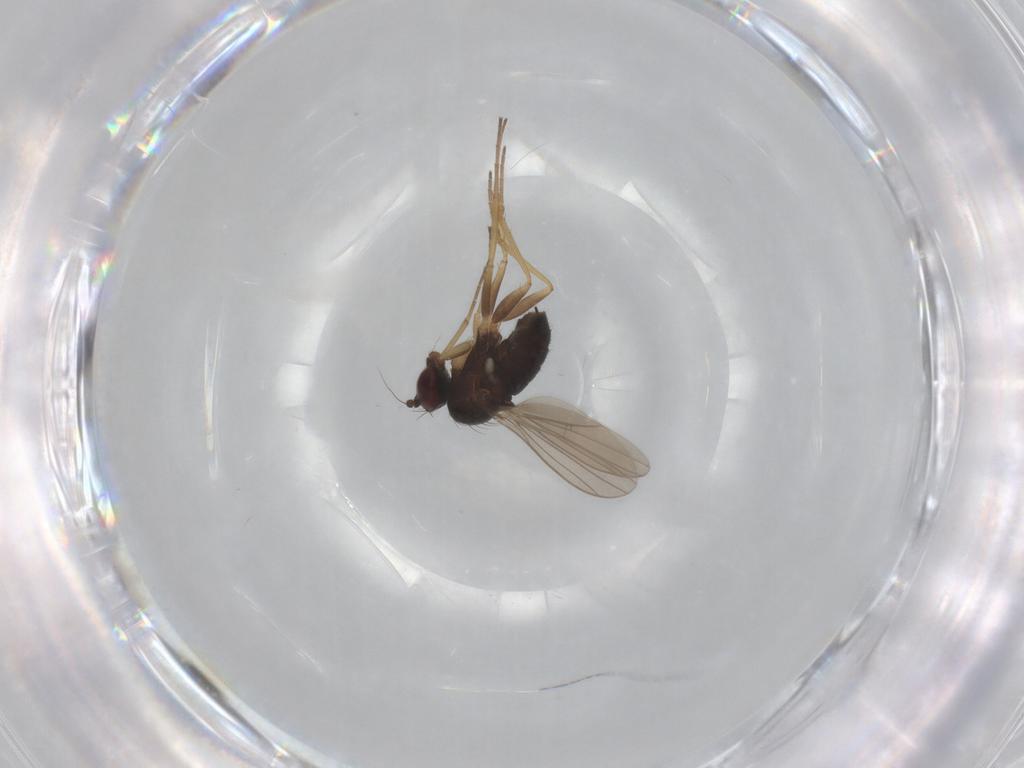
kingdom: Animalia
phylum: Arthropoda
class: Insecta
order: Diptera
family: Dolichopodidae
